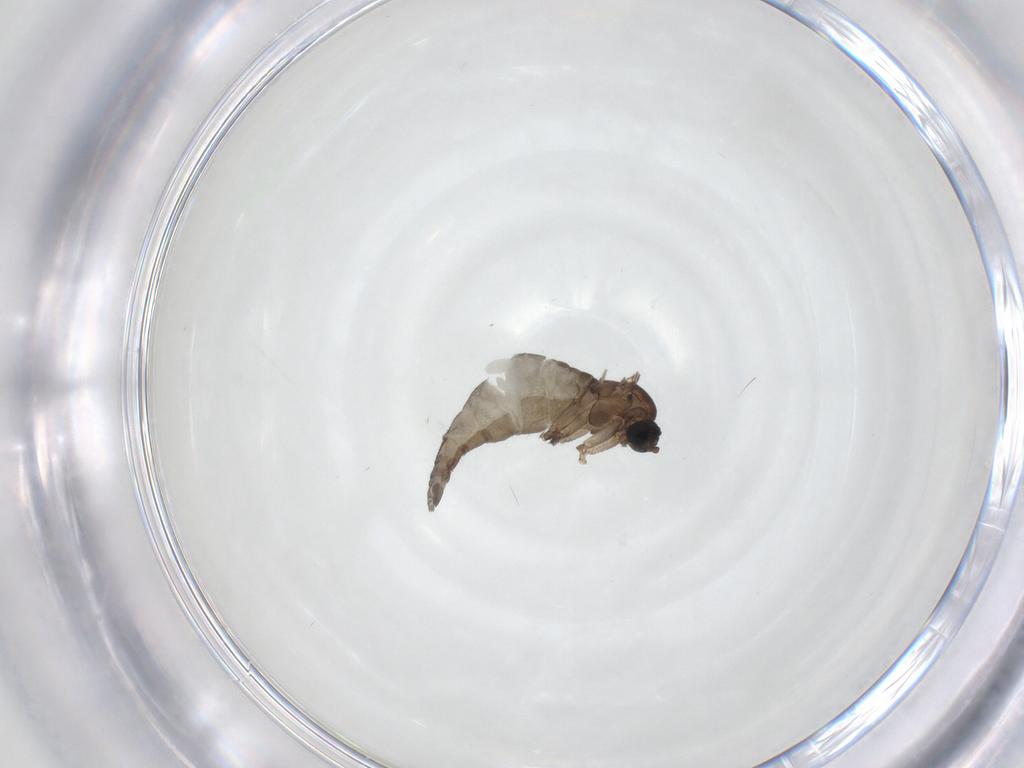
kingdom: Animalia
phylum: Arthropoda
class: Insecta
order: Diptera
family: Sciaridae
